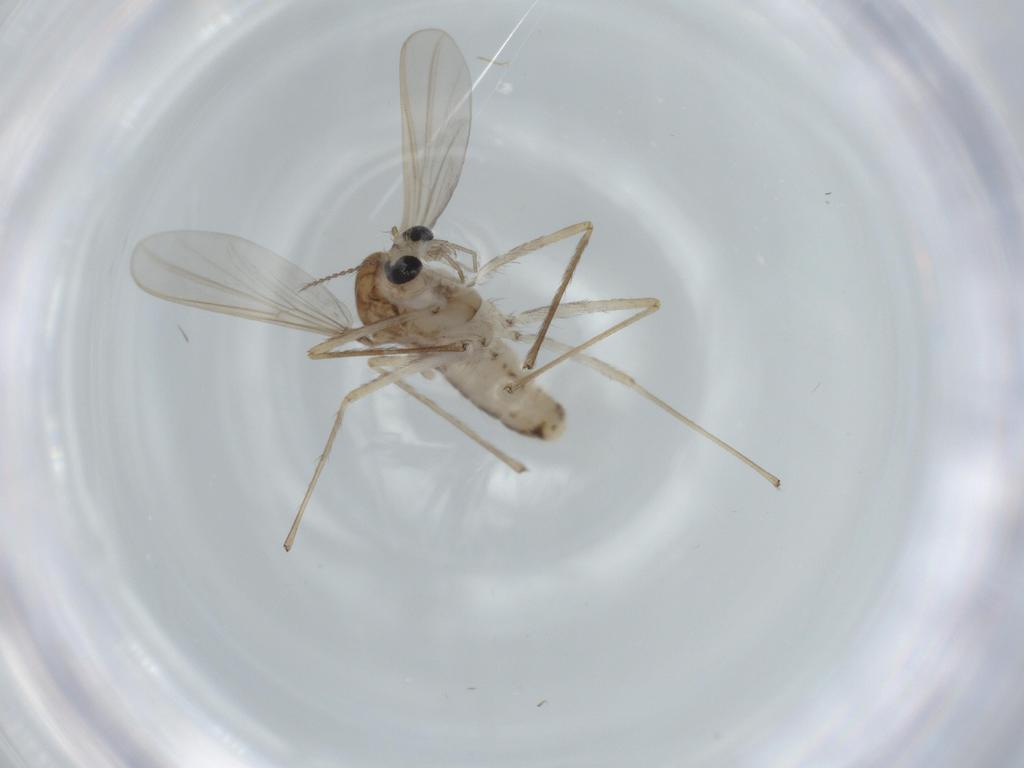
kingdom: Animalia
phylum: Arthropoda
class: Insecta
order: Diptera
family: Chironomidae
